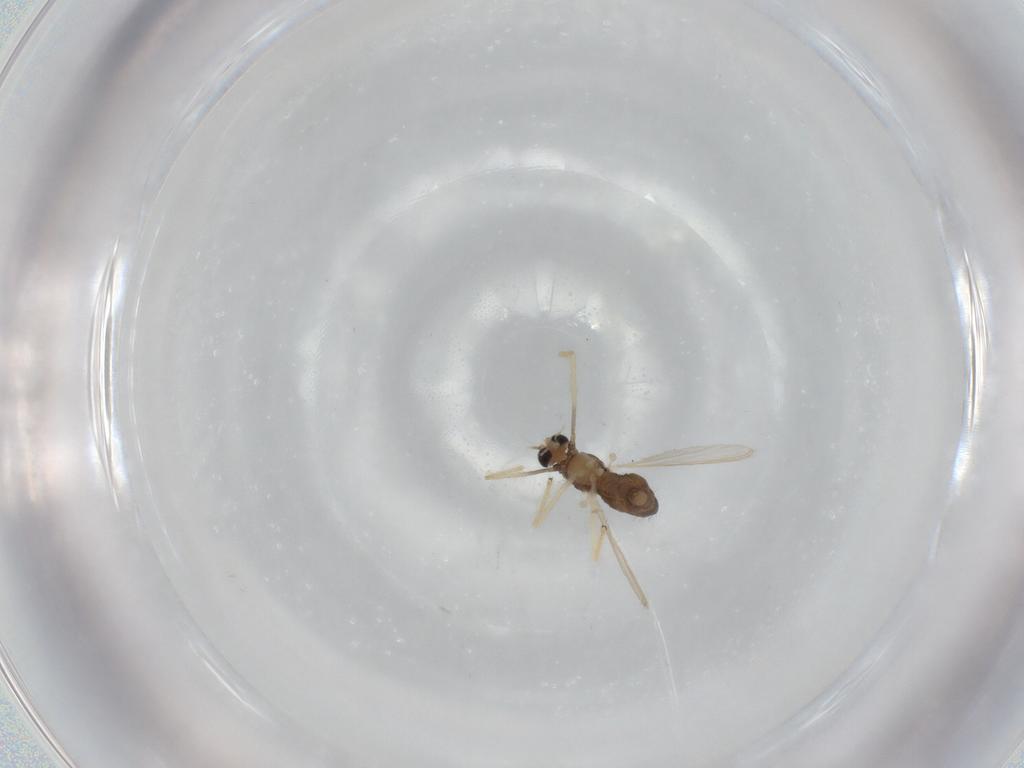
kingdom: Animalia
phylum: Arthropoda
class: Insecta
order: Diptera
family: Chironomidae
